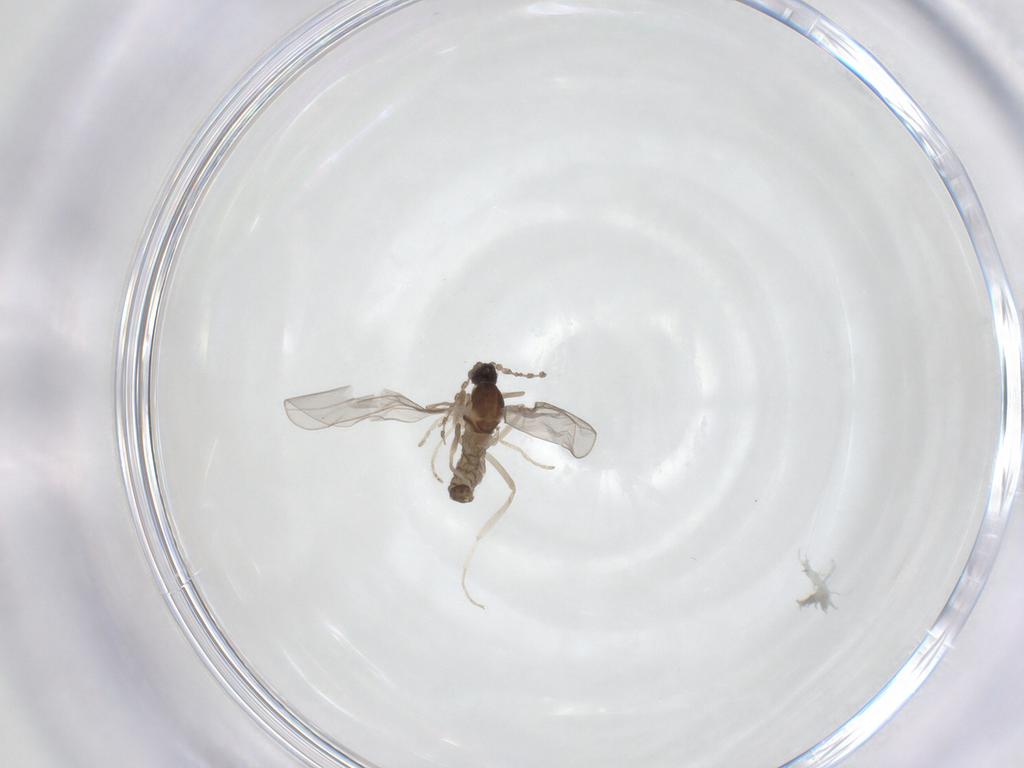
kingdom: Animalia
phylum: Arthropoda
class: Insecta
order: Diptera
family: Cecidomyiidae
